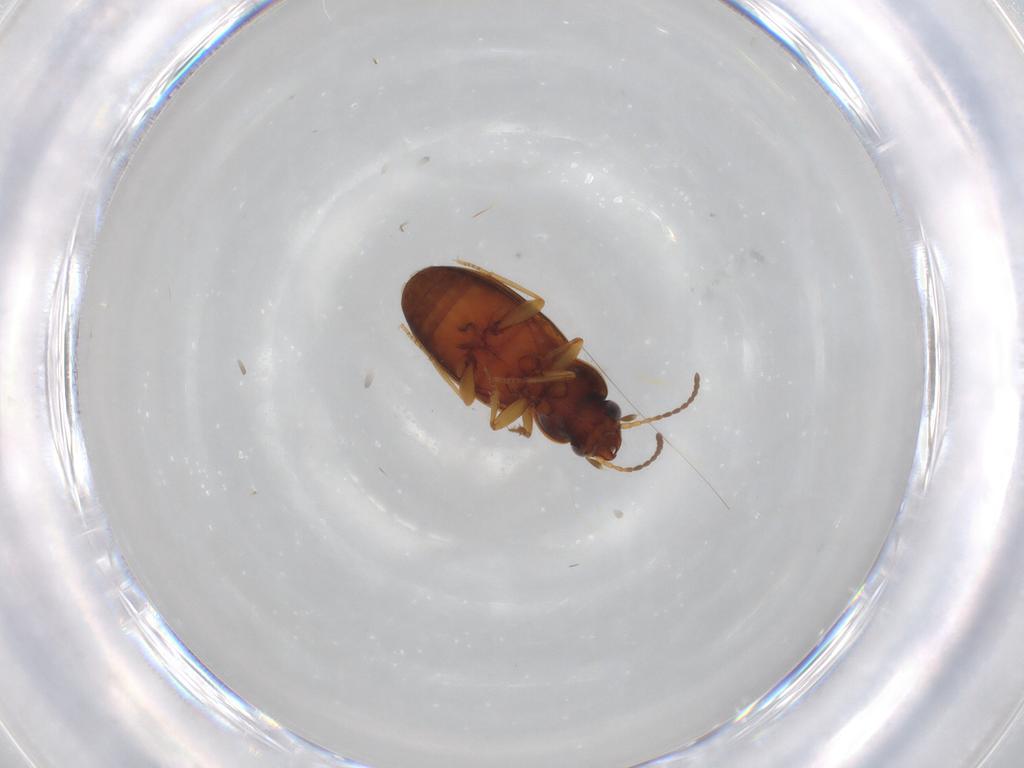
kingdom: Animalia
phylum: Arthropoda
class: Insecta
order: Coleoptera
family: Carabidae
